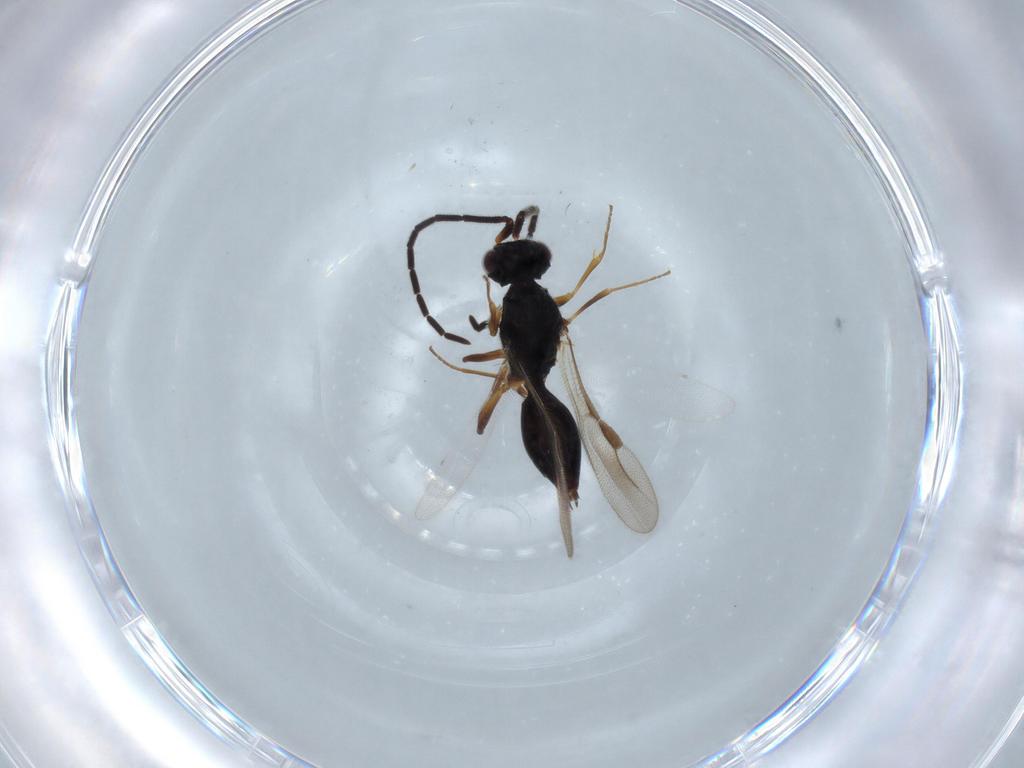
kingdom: Animalia
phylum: Arthropoda
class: Insecta
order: Hymenoptera
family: Megaspilidae
